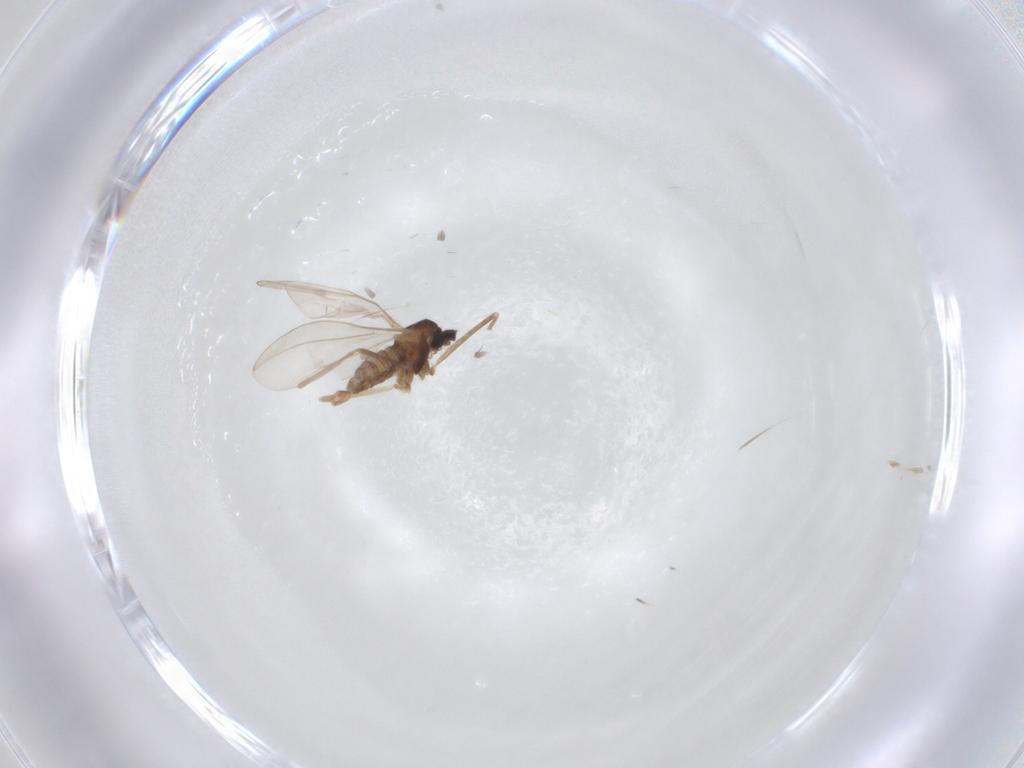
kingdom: Animalia
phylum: Arthropoda
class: Insecta
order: Diptera
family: Cecidomyiidae
